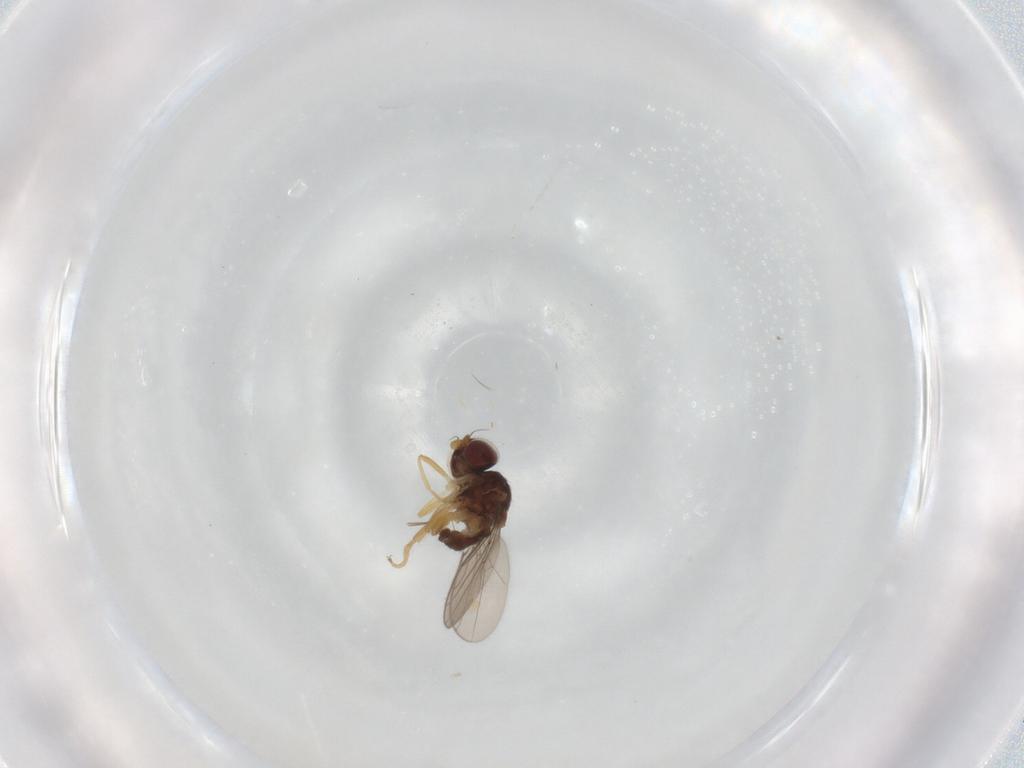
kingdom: Animalia
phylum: Arthropoda
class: Insecta
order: Diptera
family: Chloropidae
